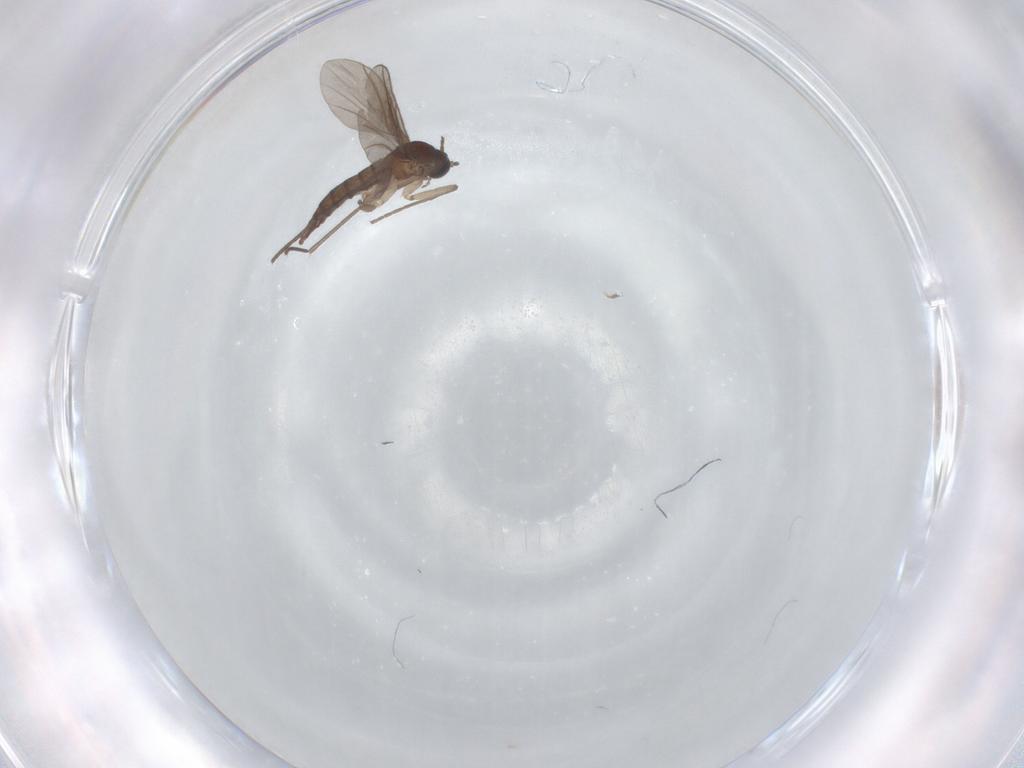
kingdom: Animalia
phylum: Arthropoda
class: Insecta
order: Diptera
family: Sciaridae
